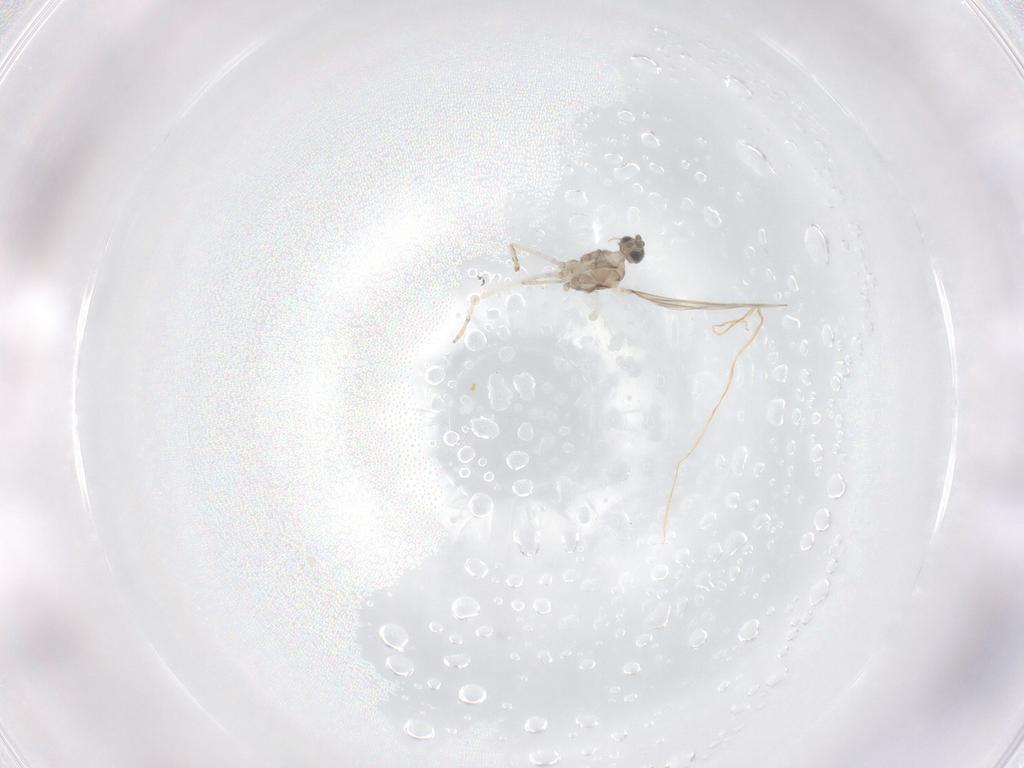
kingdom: Animalia
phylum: Arthropoda
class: Insecta
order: Diptera
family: Cecidomyiidae
